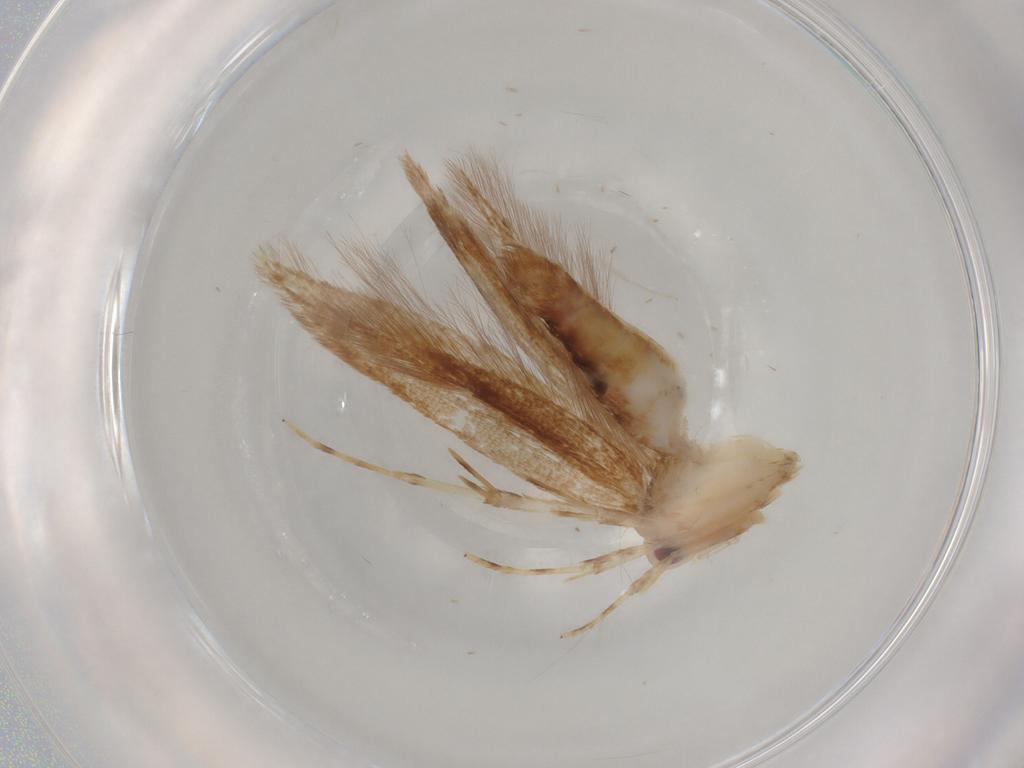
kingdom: Animalia
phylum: Arthropoda
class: Insecta
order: Lepidoptera
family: Cosmopterigidae
